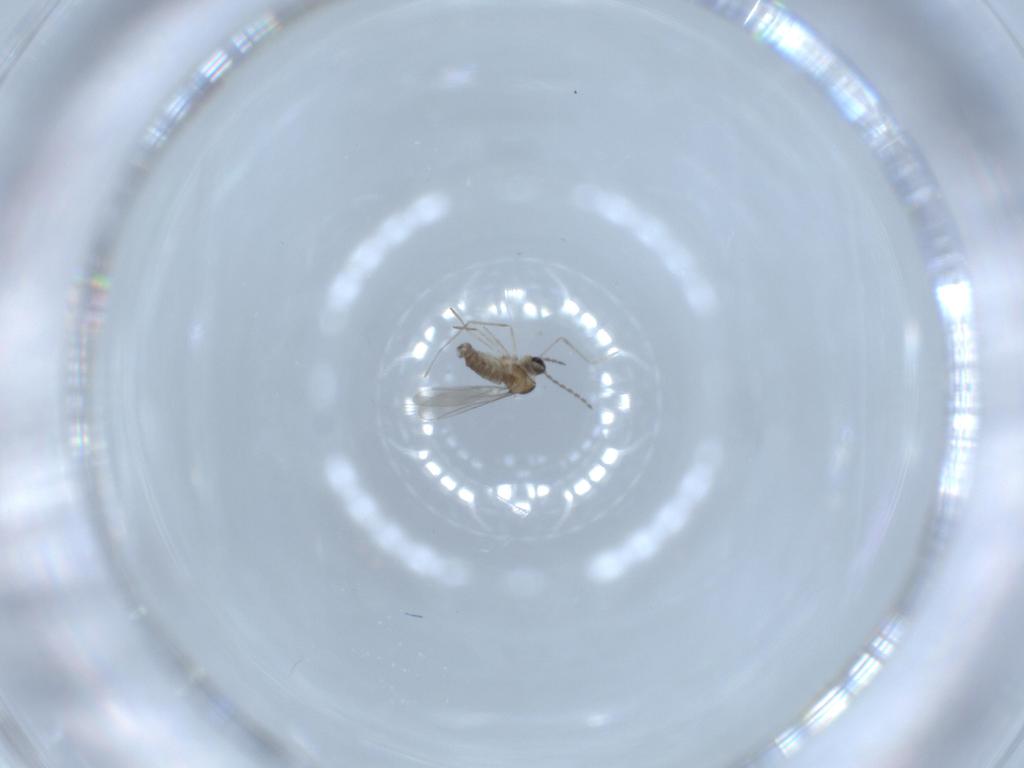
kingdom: Animalia
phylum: Arthropoda
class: Insecta
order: Diptera
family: Cecidomyiidae
